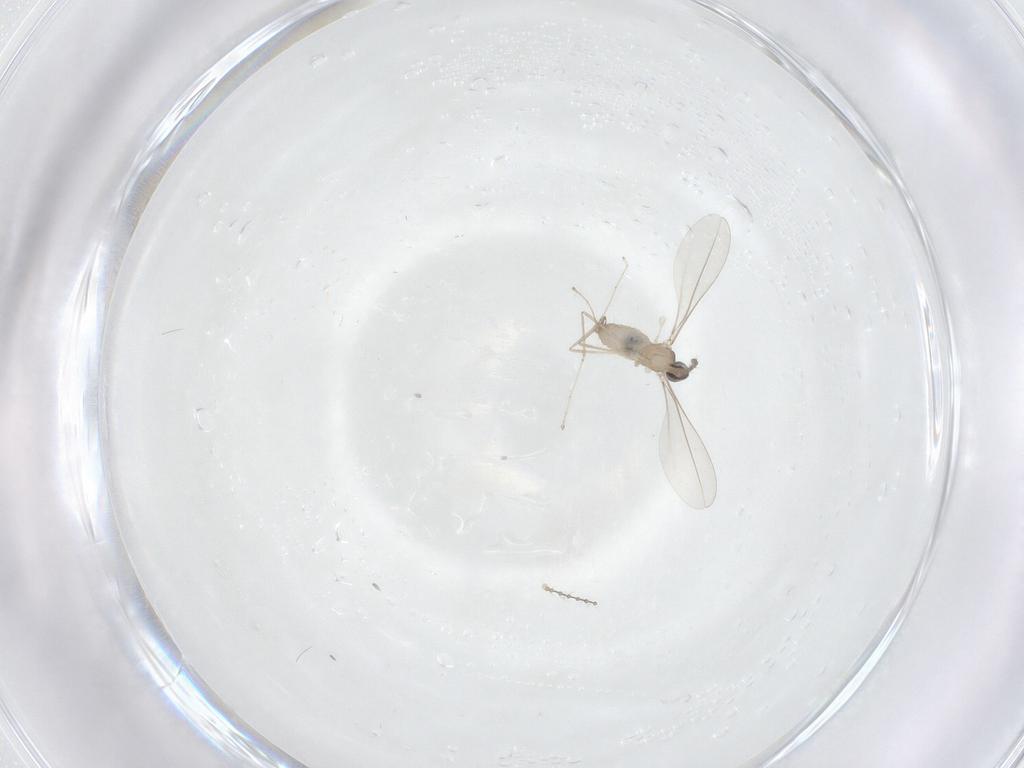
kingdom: Animalia
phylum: Arthropoda
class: Insecta
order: Diptera
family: Cecidomyiidae
